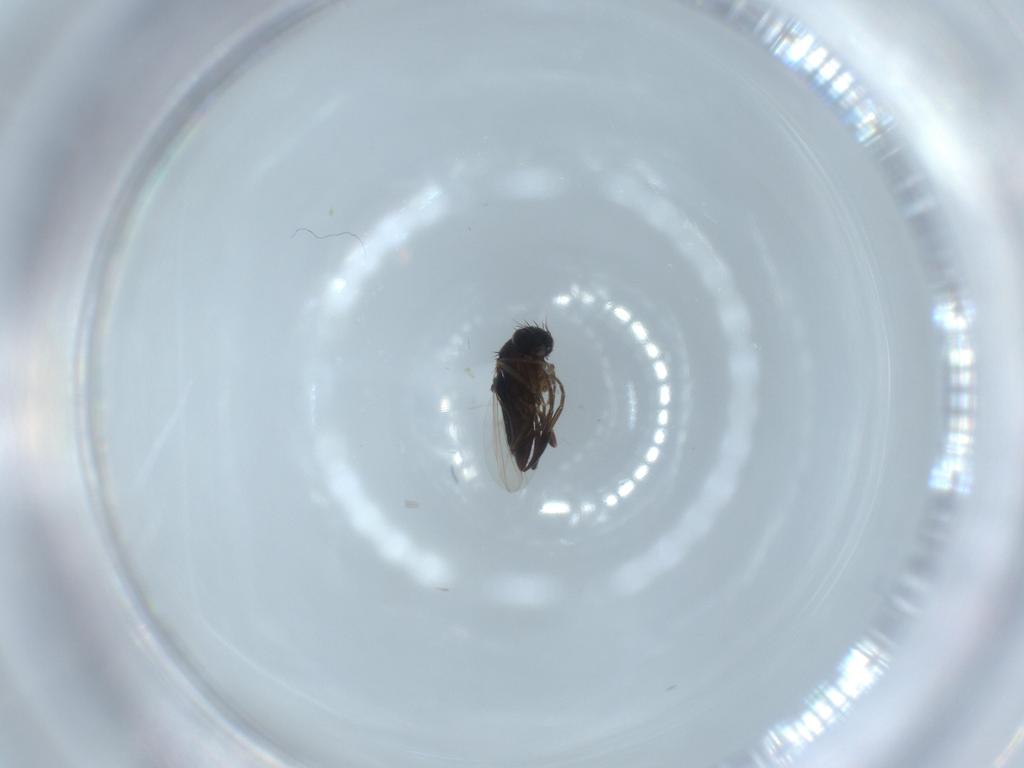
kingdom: Animalia
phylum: Arthropoda
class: Insecta
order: Diptera
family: Phoridae
